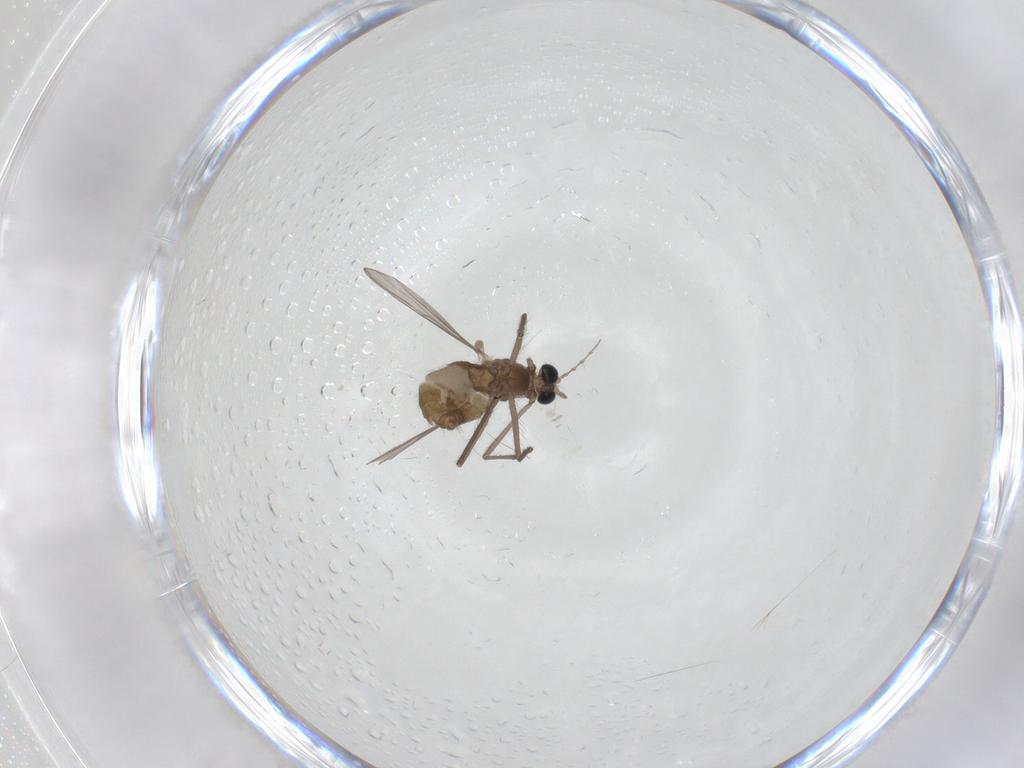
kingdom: Animalia
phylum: Arthropoda
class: Insecta
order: Diptera
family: Chironomidae
